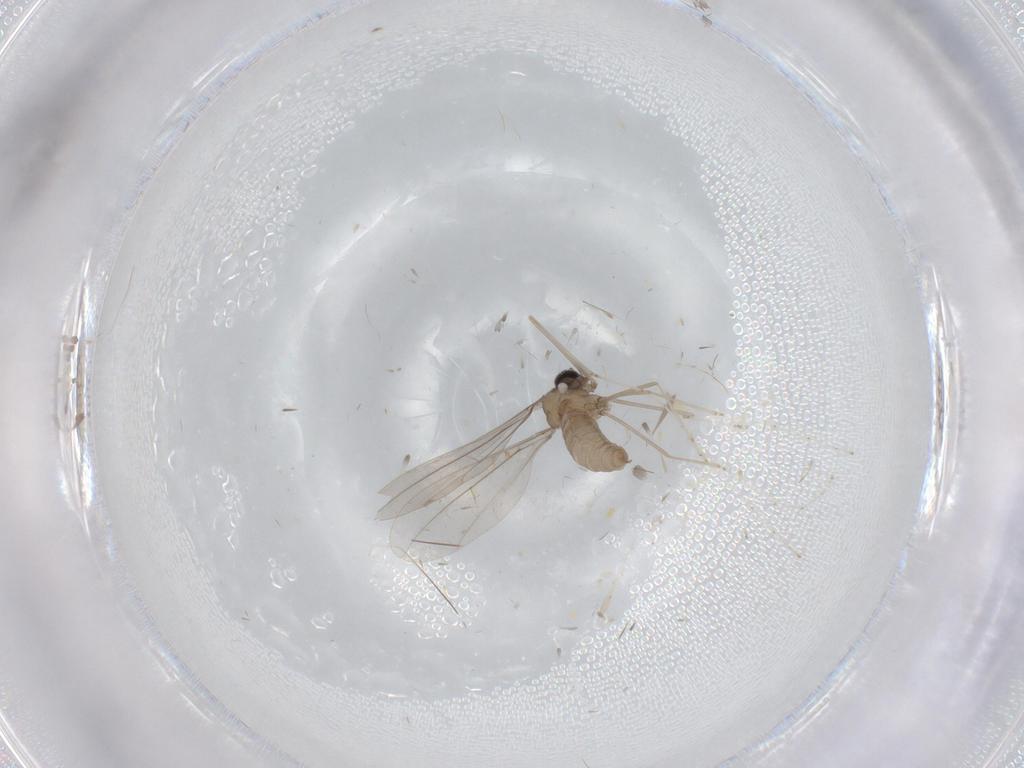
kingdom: Animalia
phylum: Arthropoda
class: Insecta
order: Diptera
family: Cecidomyiidae
